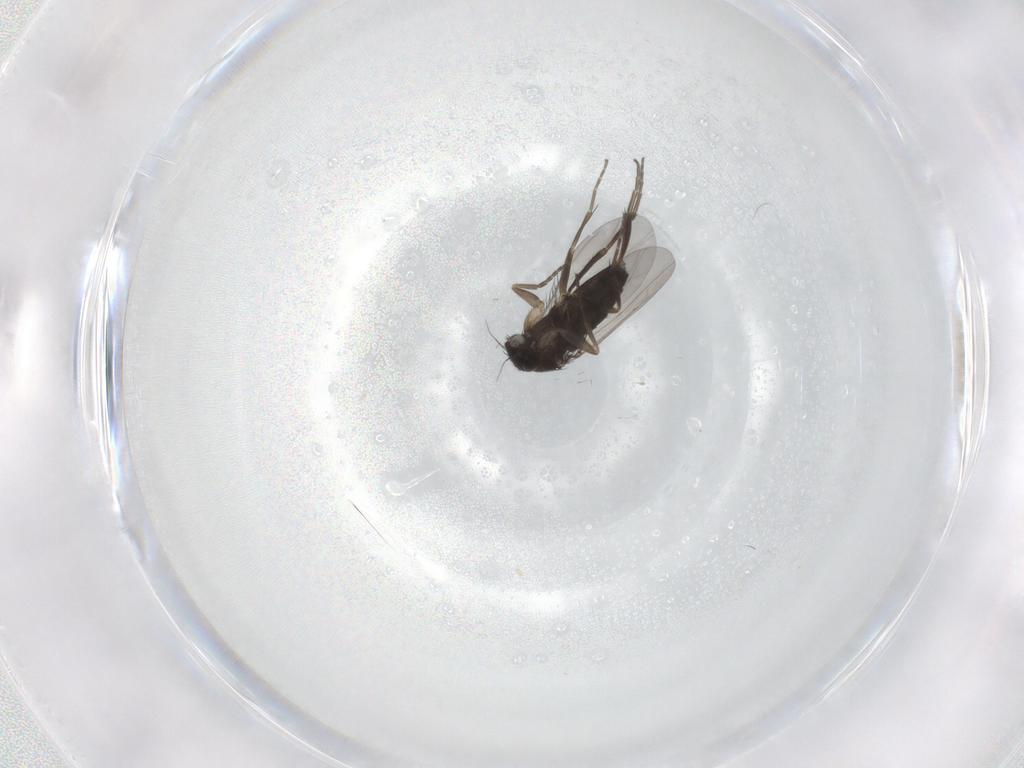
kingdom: Animalia
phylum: Arthropoda
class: Insecta
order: Diptera
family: Phoridae
